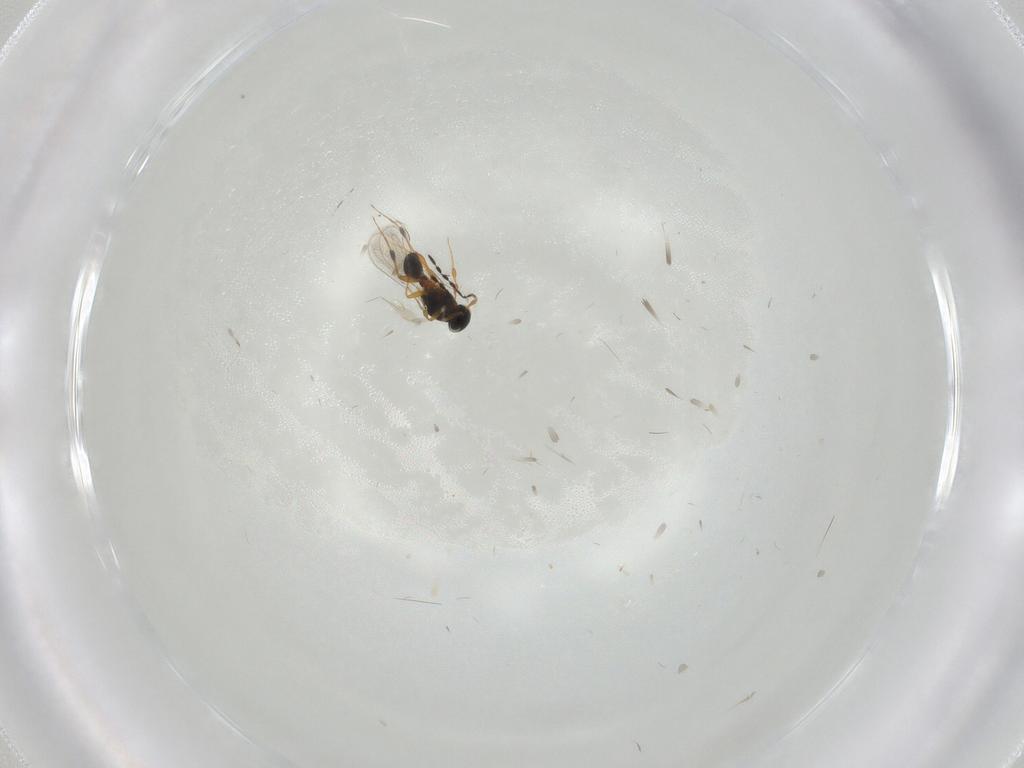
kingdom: Animalia
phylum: Arthropoda
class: Insecta
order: Hymenoptera
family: Platygastridae
